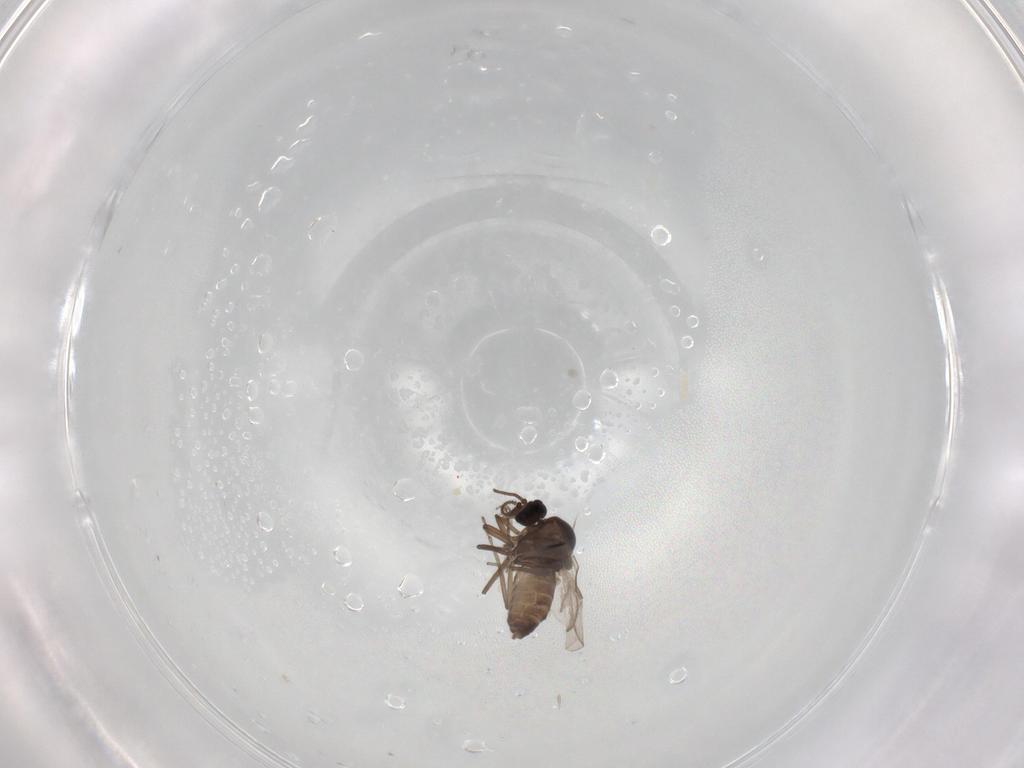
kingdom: Animalia
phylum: Arthropoda
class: Insecta
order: Diptera
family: Ceratopogonidae
